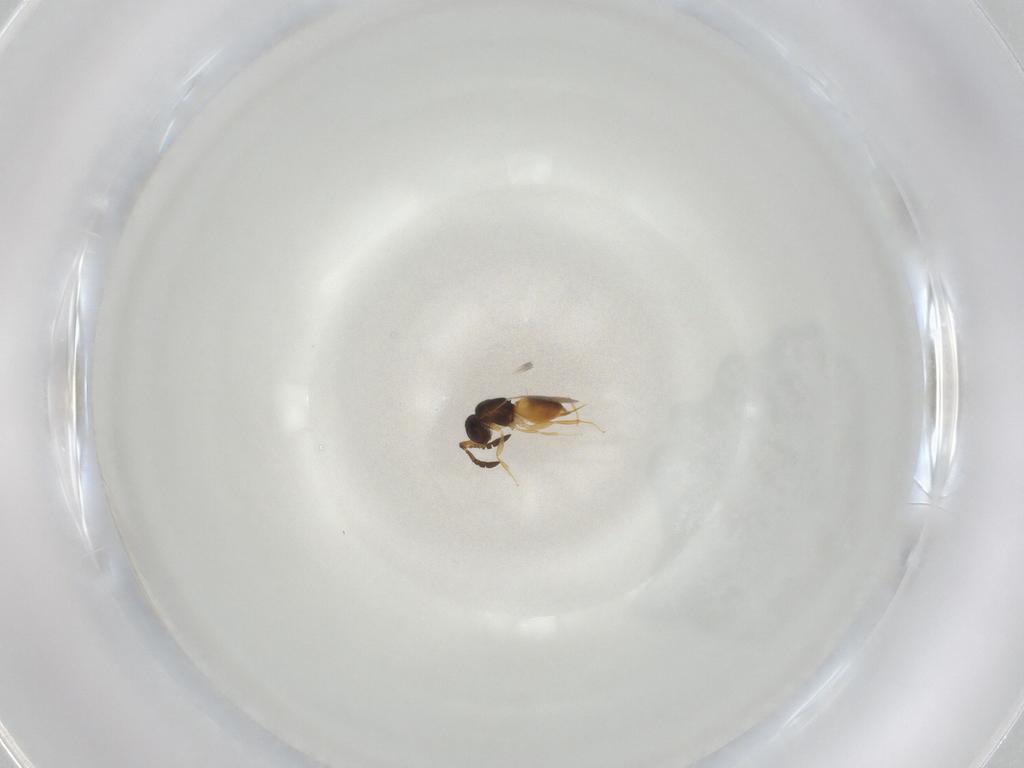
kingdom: Animalia
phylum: Arthropoda
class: Insecta
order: Hymenoptera
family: Ceraphronidae
